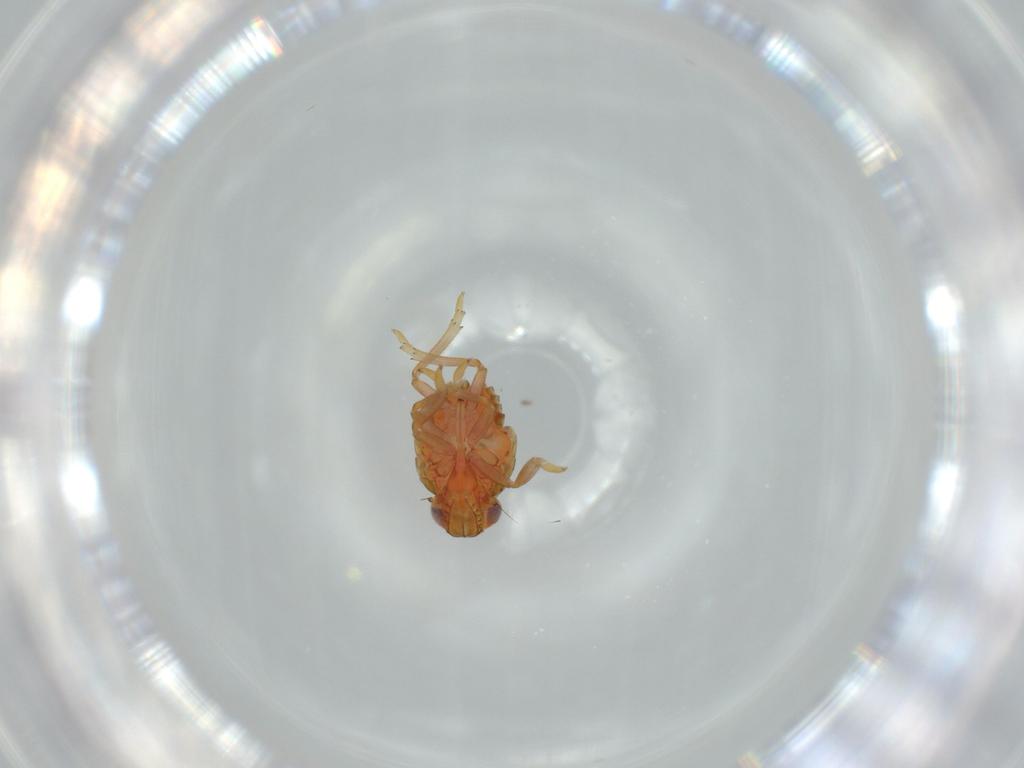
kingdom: Animalia
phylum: Arthropoda
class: Insecta
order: Hemiptera
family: Issidae
